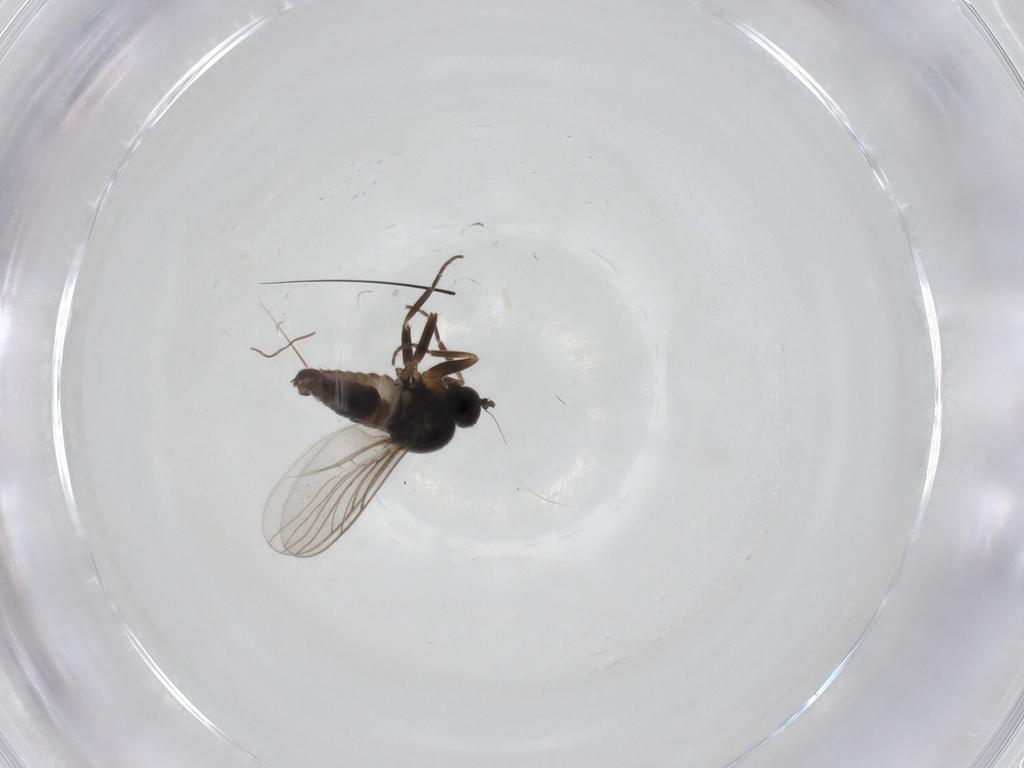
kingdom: Animalia
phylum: Arthropoda
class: Insecta
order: Diptera
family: Hybotidae
